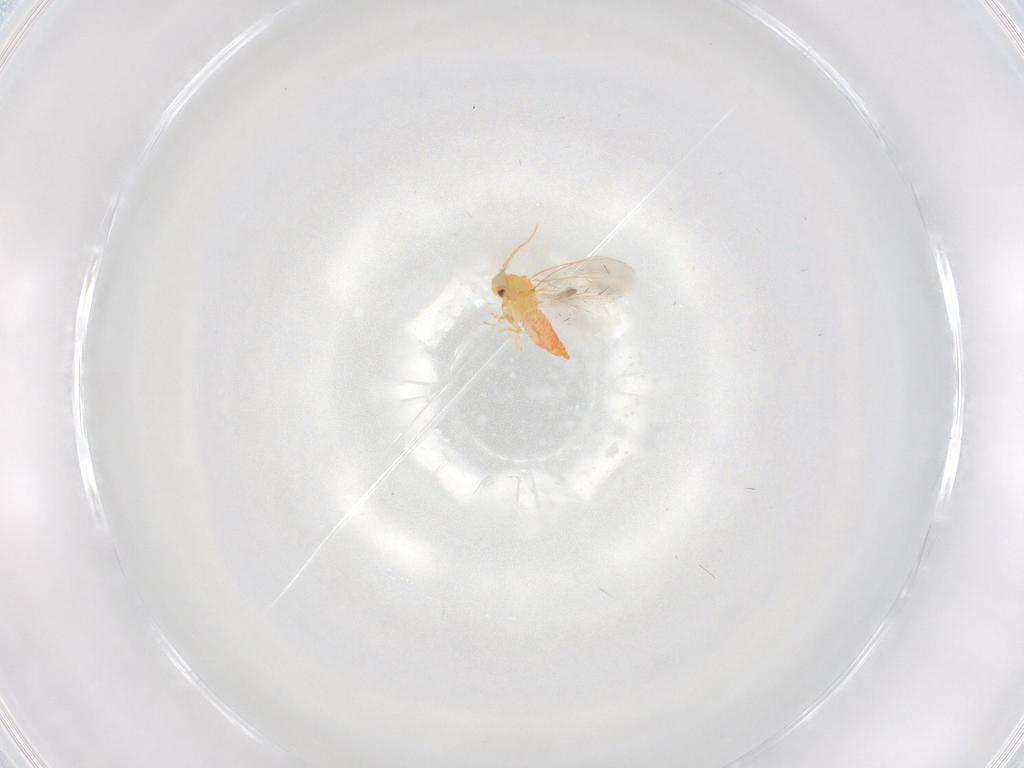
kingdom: Animalia
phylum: Arthropoda
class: Insecta
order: Hemiptera
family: Aleyrodidae
